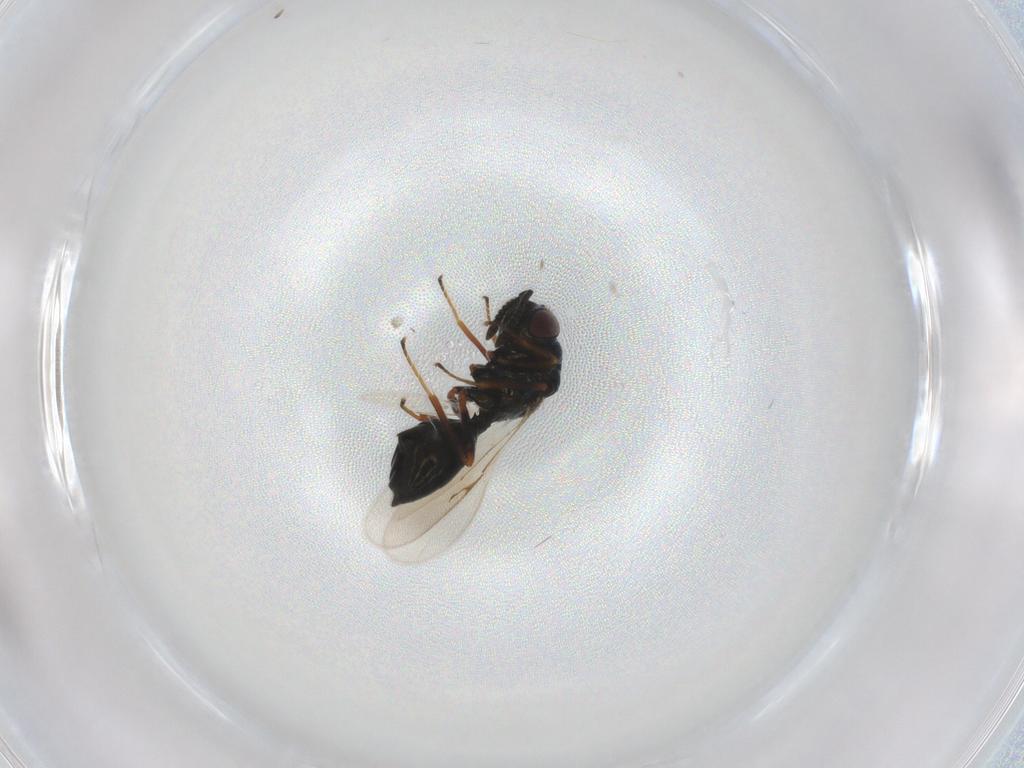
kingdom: Animalia
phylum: Arthropoda
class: Insecta
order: Hymenoptera
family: Chalcidoidea_incertae_sedis
